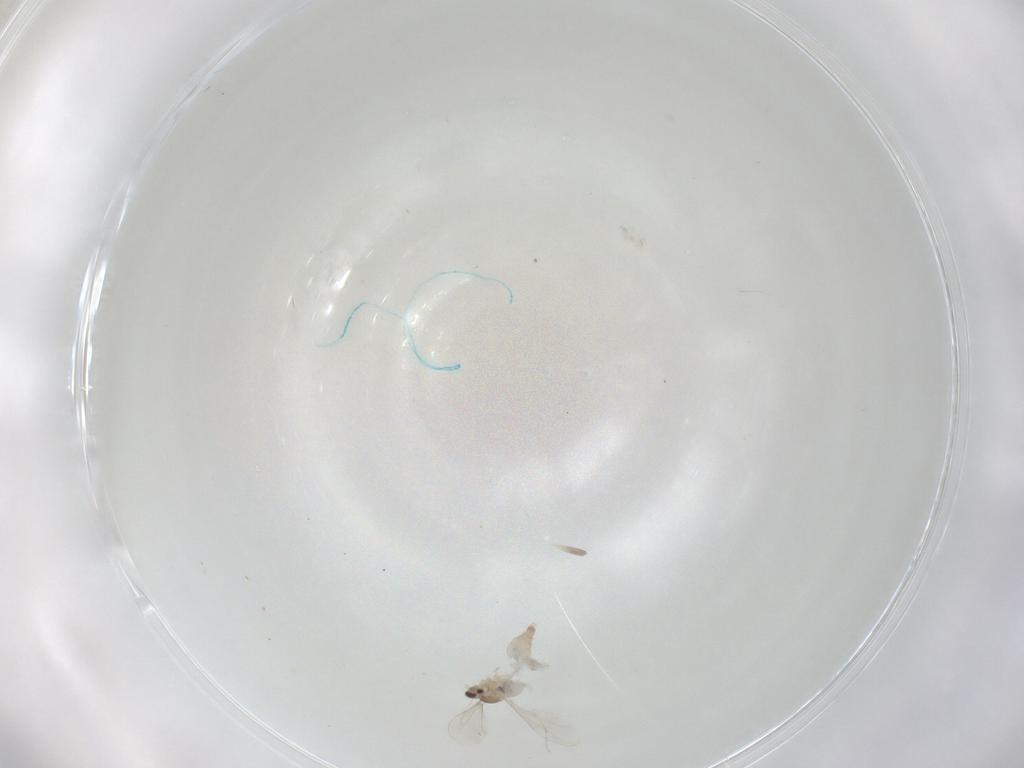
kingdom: Animalia
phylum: Arthropoda
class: Insecta
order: Diptera
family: Cecidomyiidae
